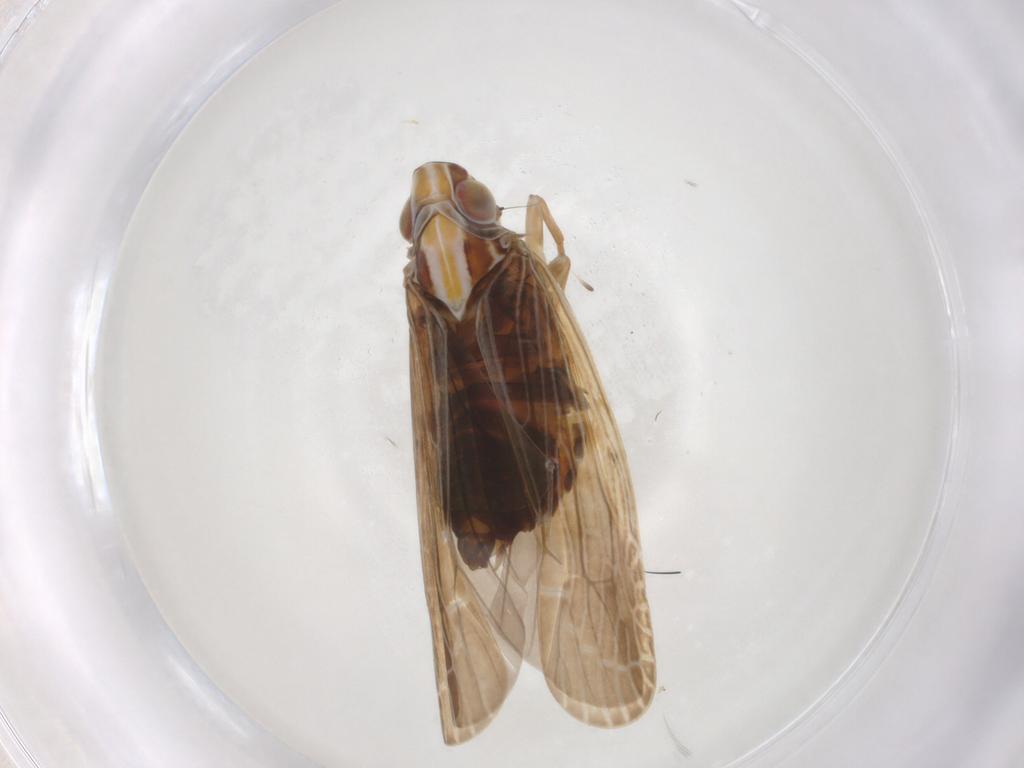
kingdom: Animalia
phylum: Arthropoda
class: Insecta
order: Hemiptera
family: Achilidae
